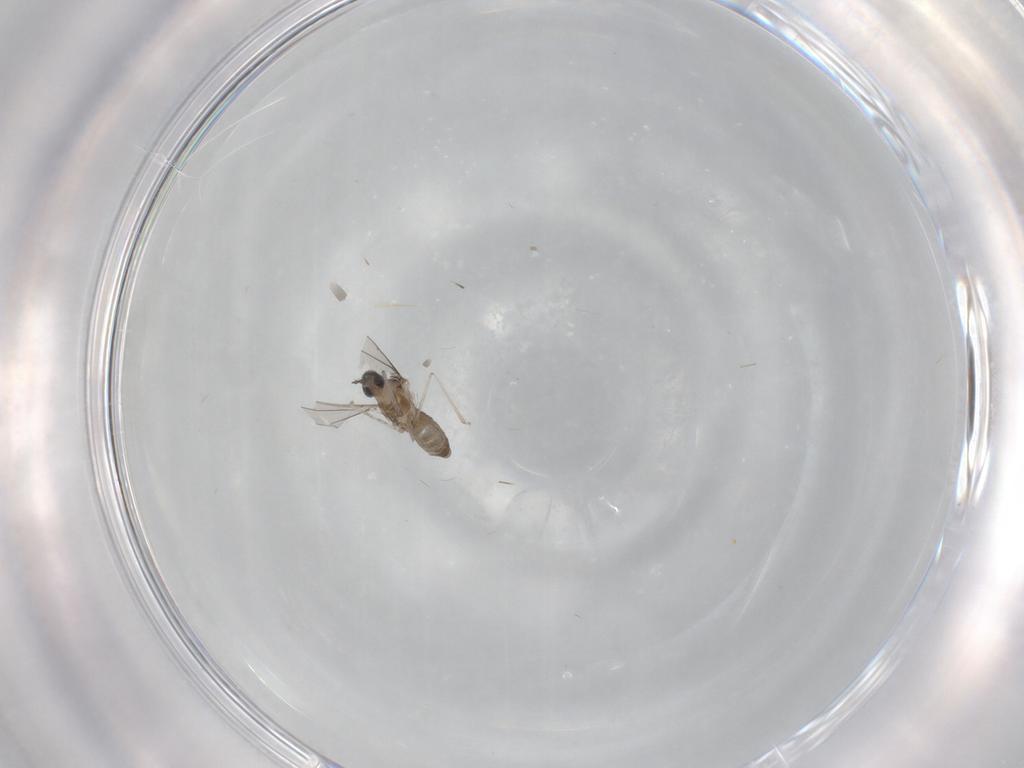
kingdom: Animalia
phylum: Arthropoda
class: Insecta
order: Diptera
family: Cecidomyiidae
